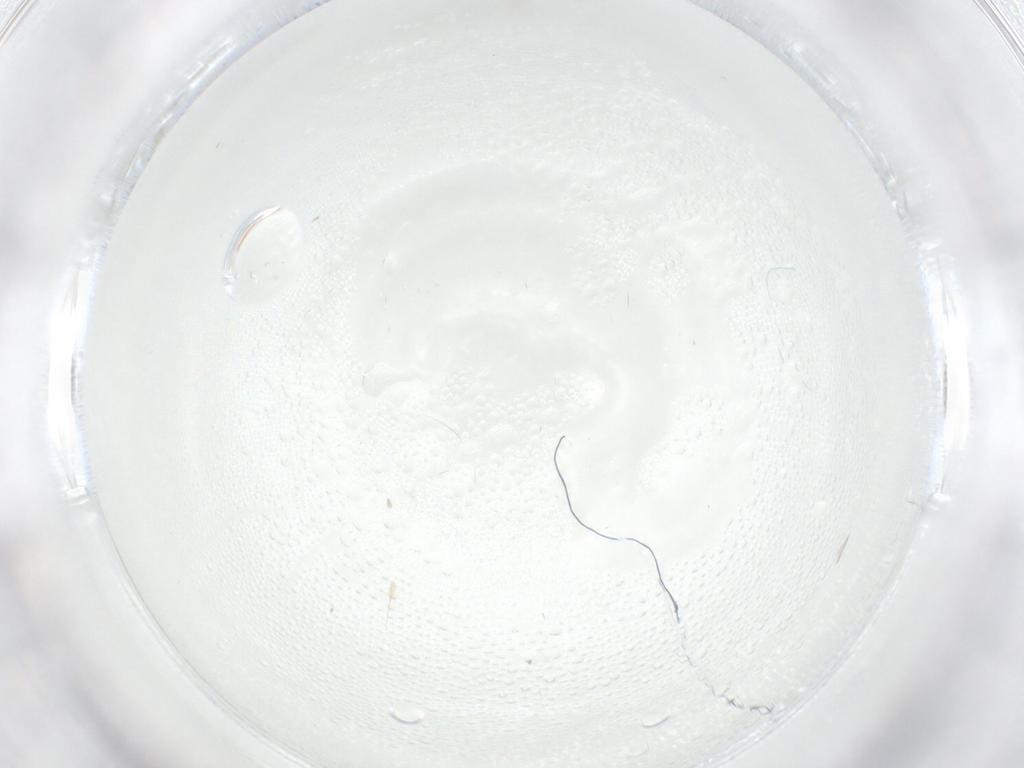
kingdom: Animalia
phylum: Arthropoda
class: Insecta
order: Diptera
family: Cecidomyiidae
